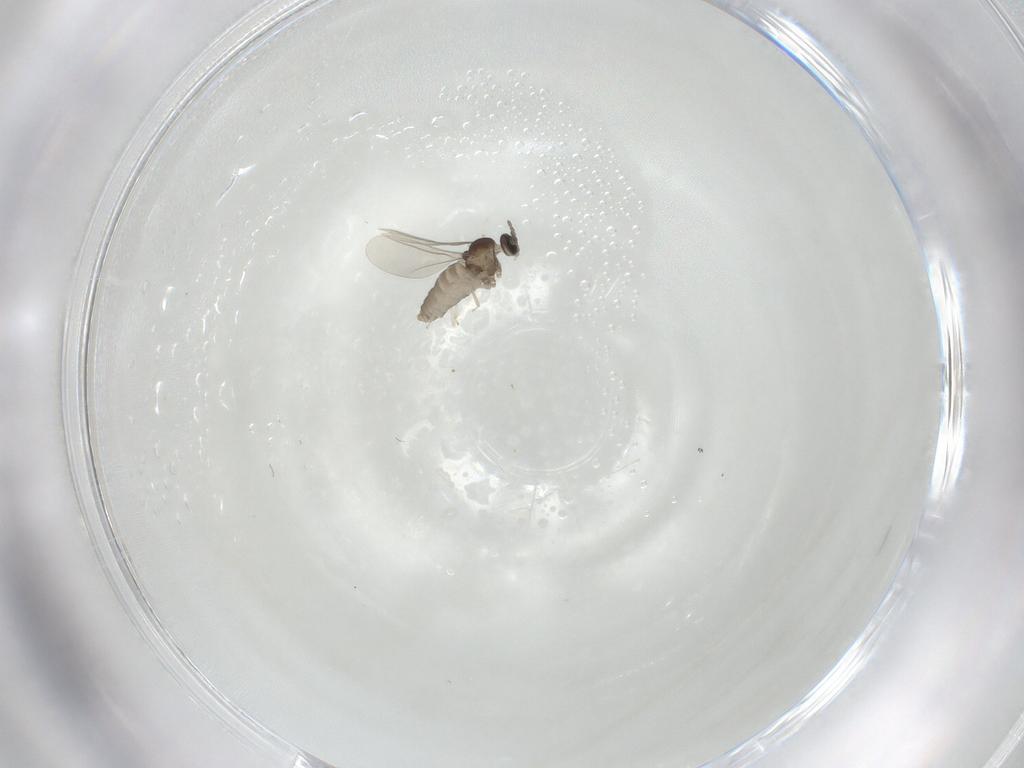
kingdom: Animalia
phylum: Arthropoda
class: Insecta
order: Diptera
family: Cecidomyiidae
